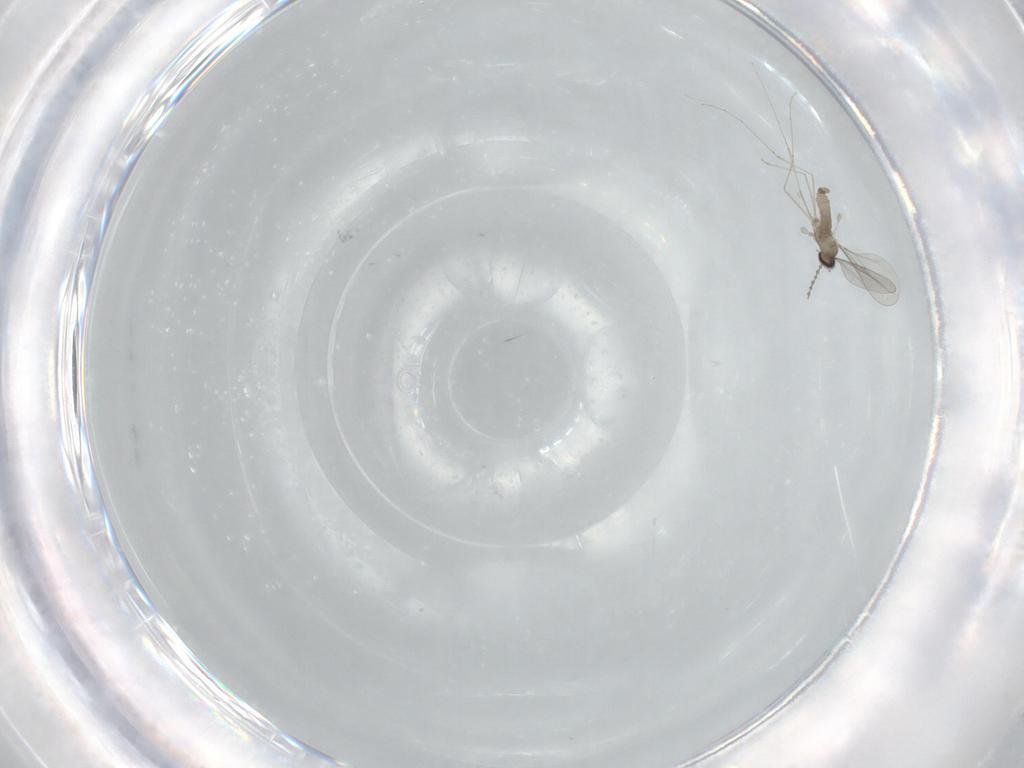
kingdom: Animalia
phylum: Arthropoda
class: Insecta
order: Diptera
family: Cecidomyiidae
